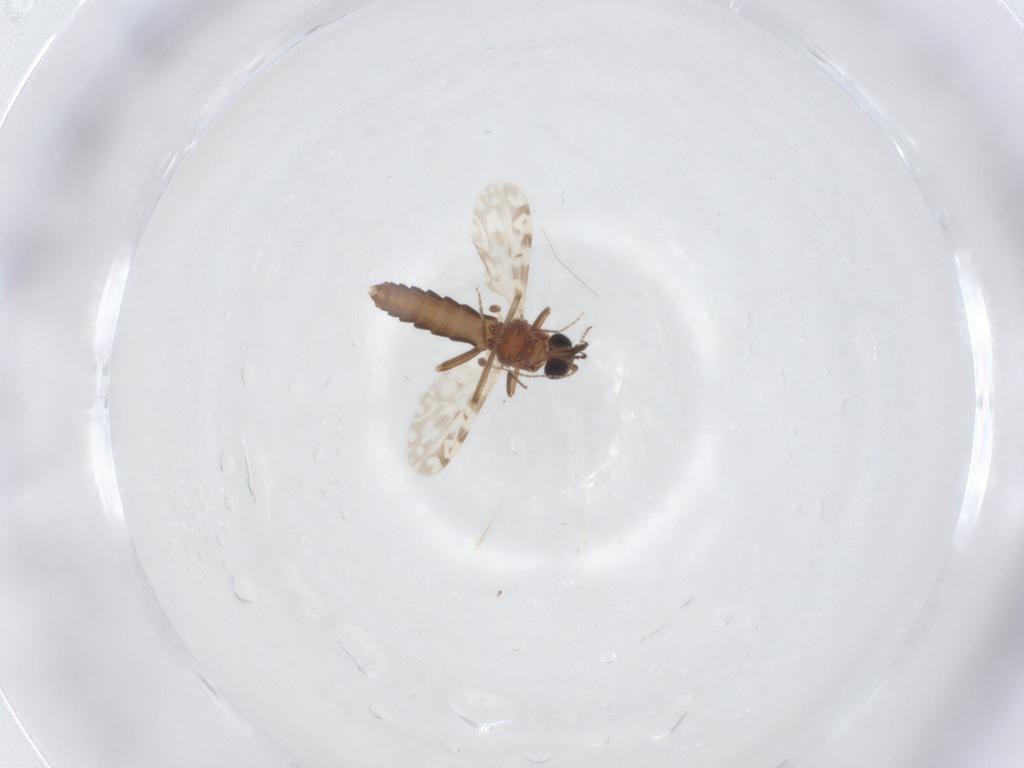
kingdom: Animalia
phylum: Arthropoda
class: Insecta
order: Diptera
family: Ceratopogonidae
